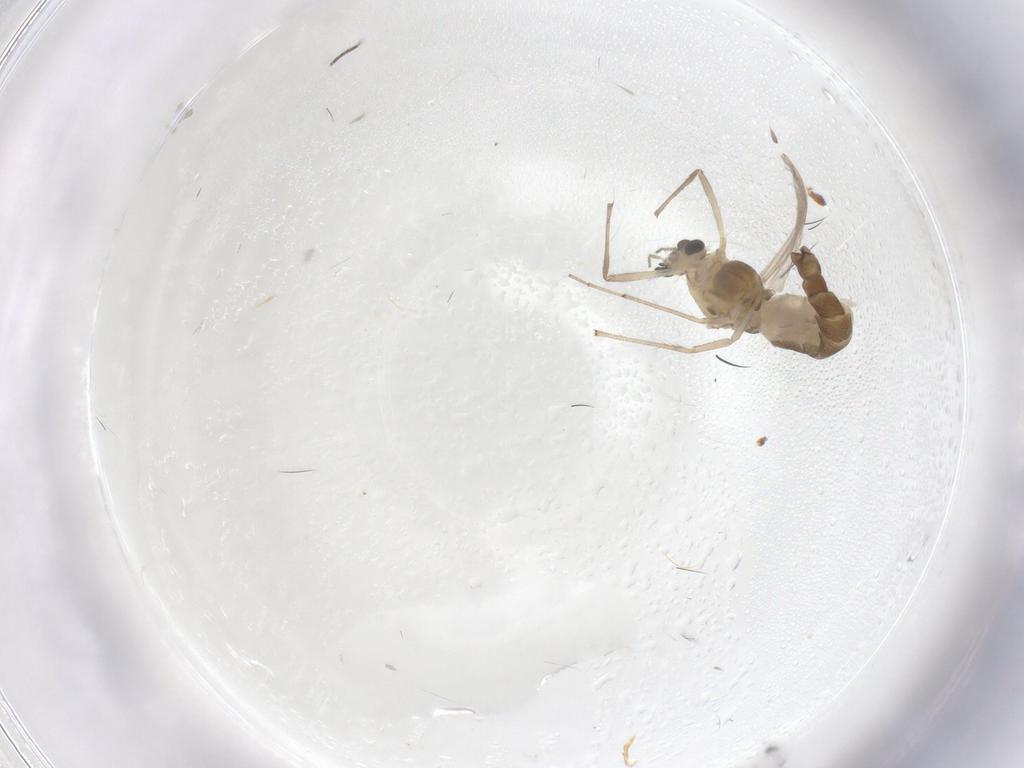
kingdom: Animalia
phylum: Arthropoda
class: Insecta
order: Diptera
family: Chironomidae
